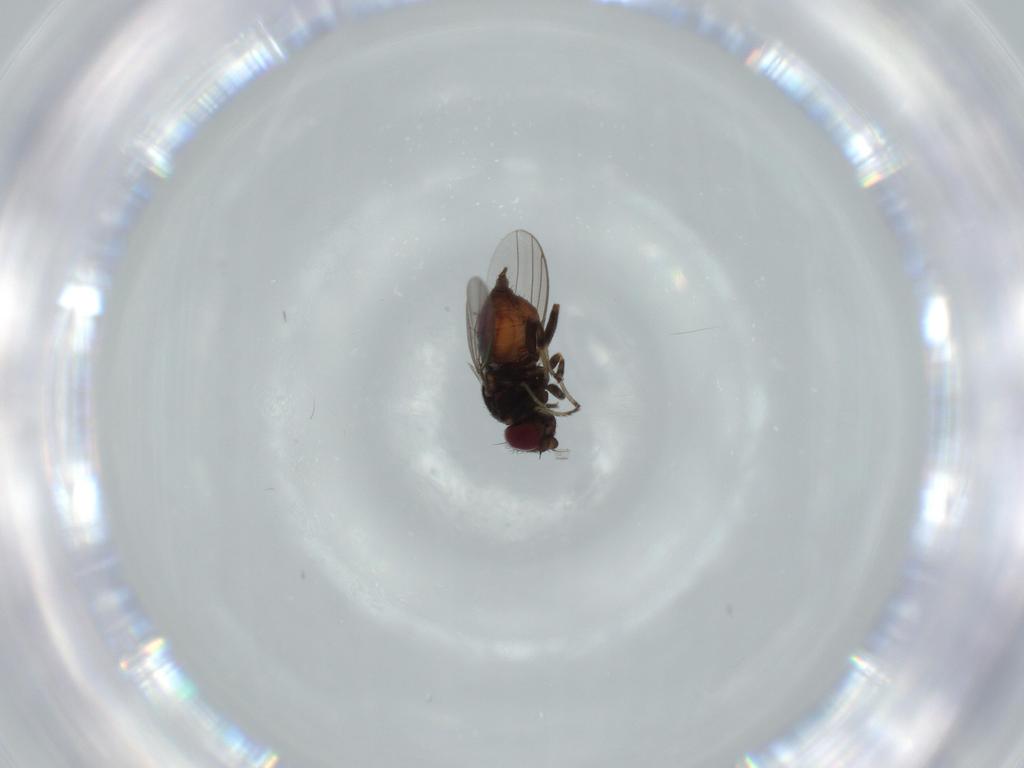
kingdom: Animalia
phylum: Arthropoda
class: Insecta
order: Diptera
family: Chloropidae
